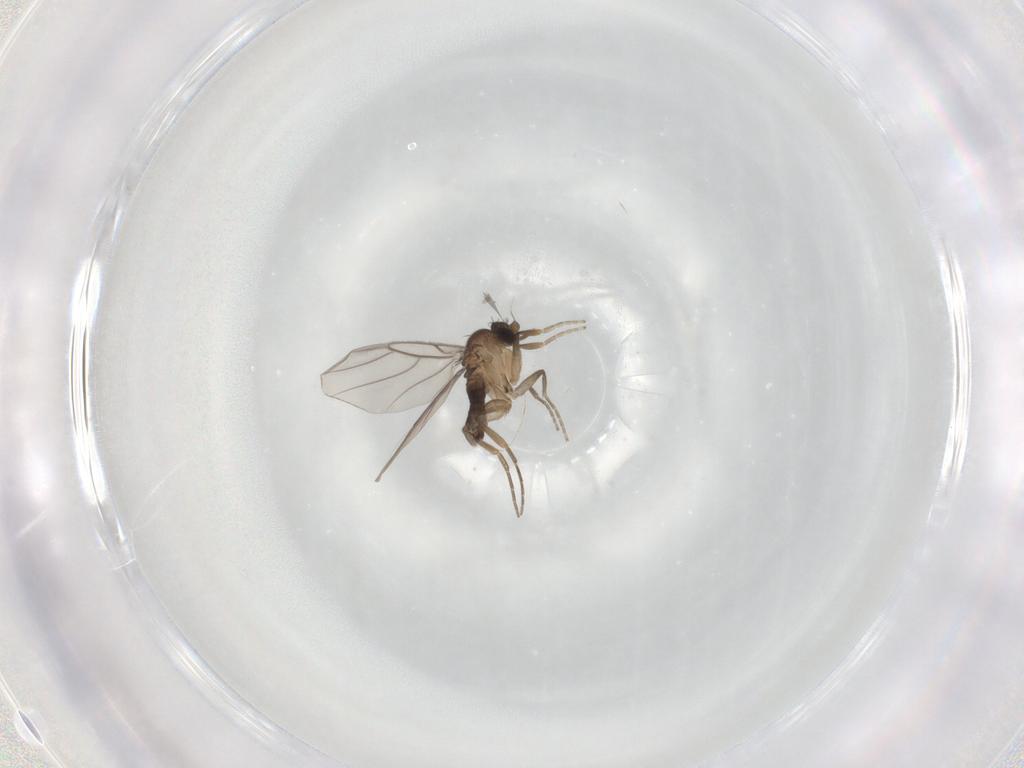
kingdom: Animalia
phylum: Arthropoda
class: Insecta
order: Diptera
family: Phoridae
